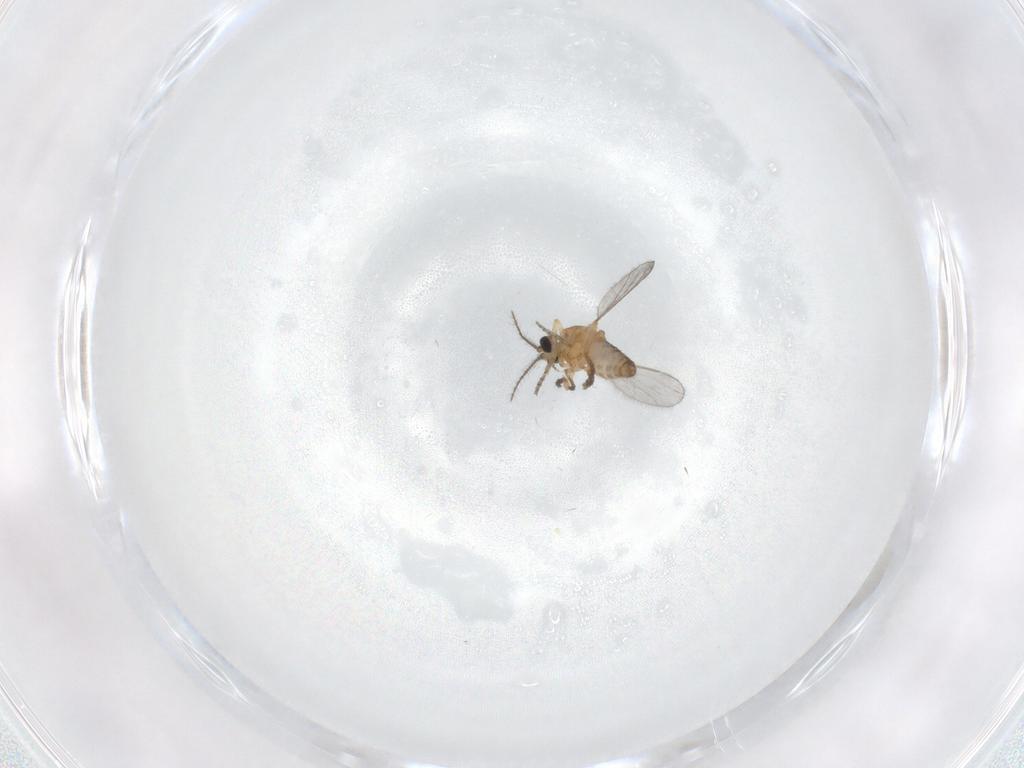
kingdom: Animalia
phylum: Arthropoda
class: Insecta
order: Diptera
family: Phoridae
